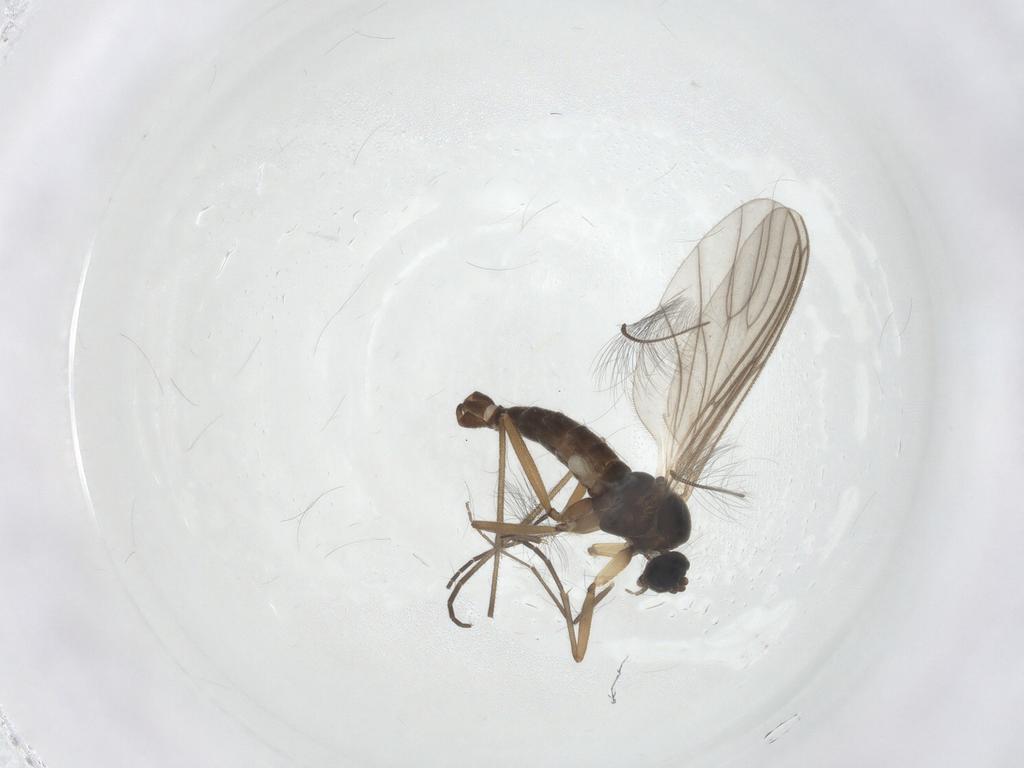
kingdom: Animalia
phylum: Arthropoda
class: Insecta
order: Diptera
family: Sciaridae
